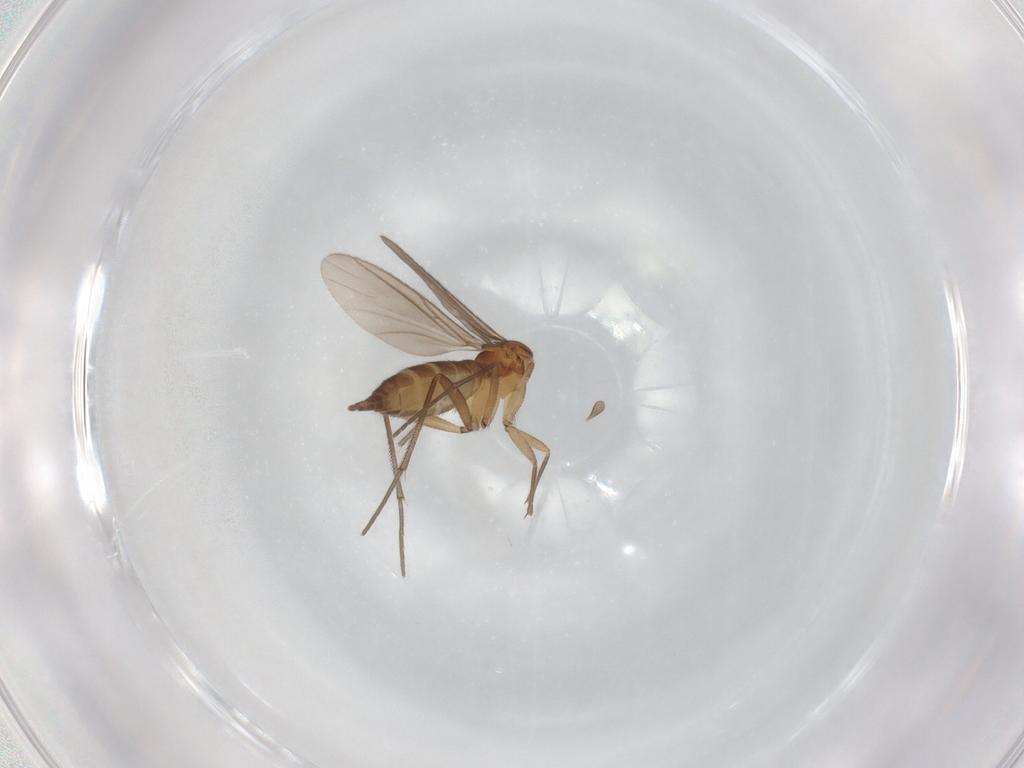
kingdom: Animalia
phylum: Arthropoda
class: Insecta
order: Diptera
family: Sciaridae
